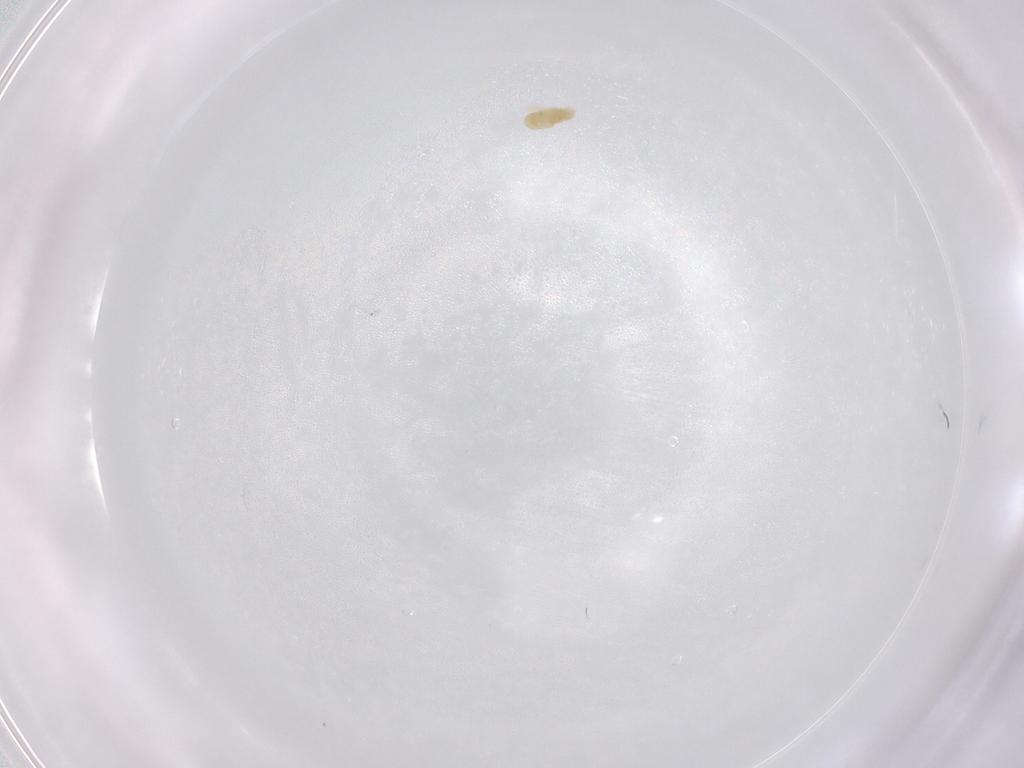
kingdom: Animalia
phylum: Arthropoda
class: Arachnida
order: Trombidiformes
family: Eupodidae
